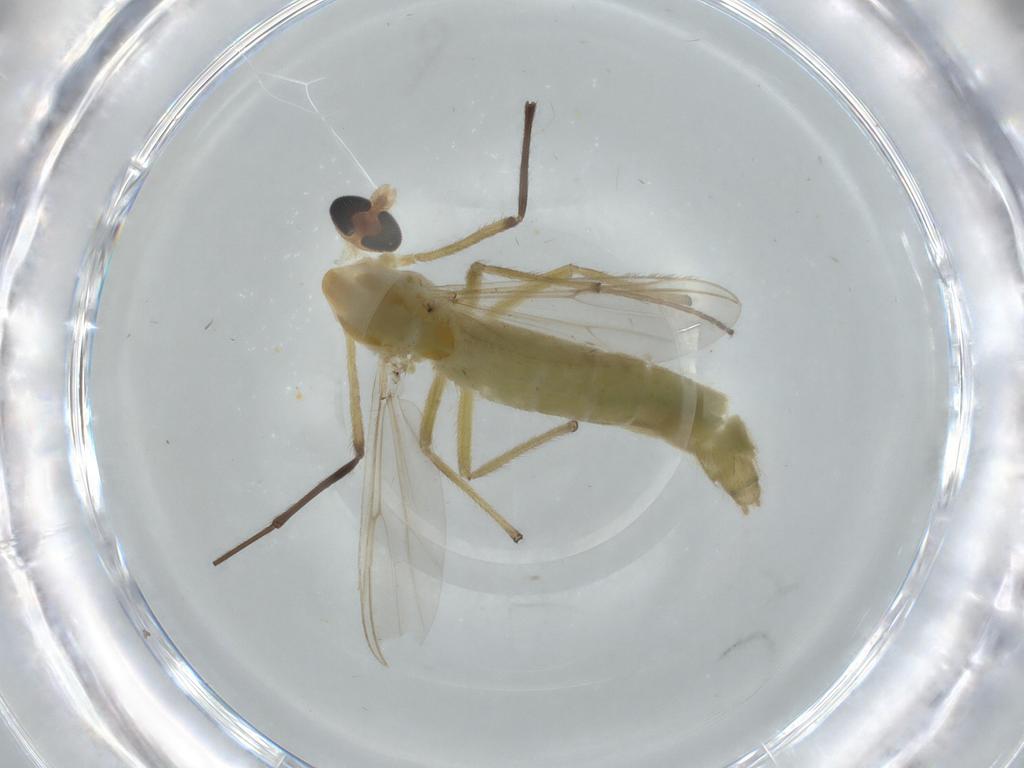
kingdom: Animalia
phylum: Arthropoda
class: Insecta
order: Diptera
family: Chironomidae
